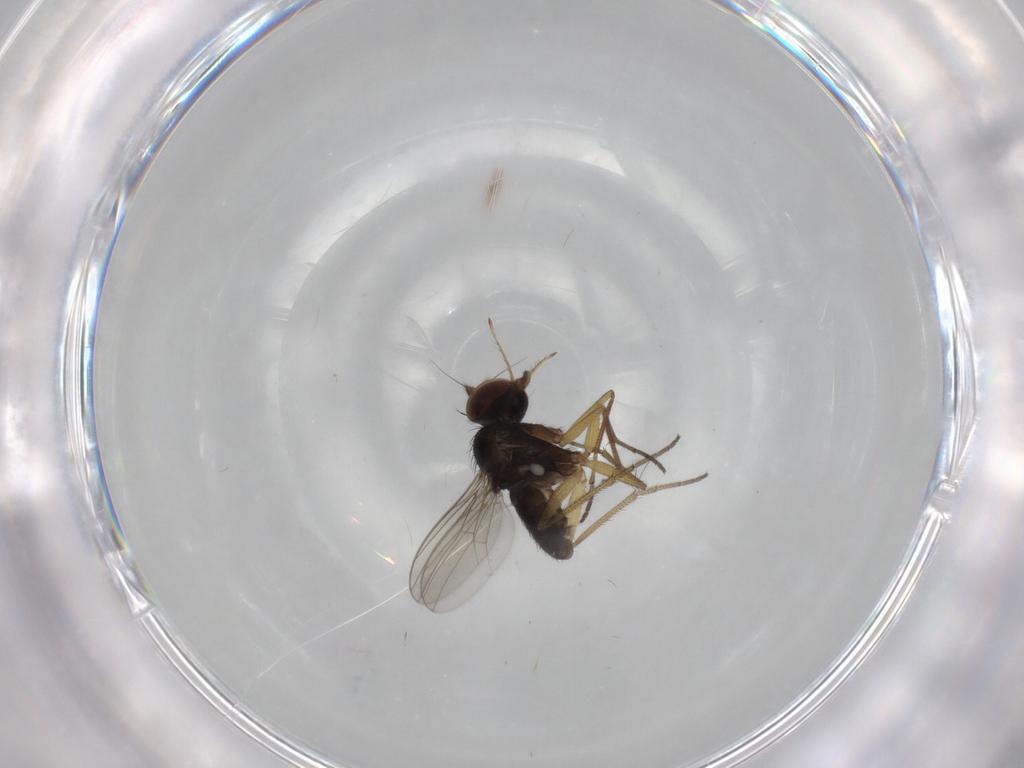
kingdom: Animalia
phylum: Arthropoda
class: Insecta
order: Diptera
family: Dolichopodidae
